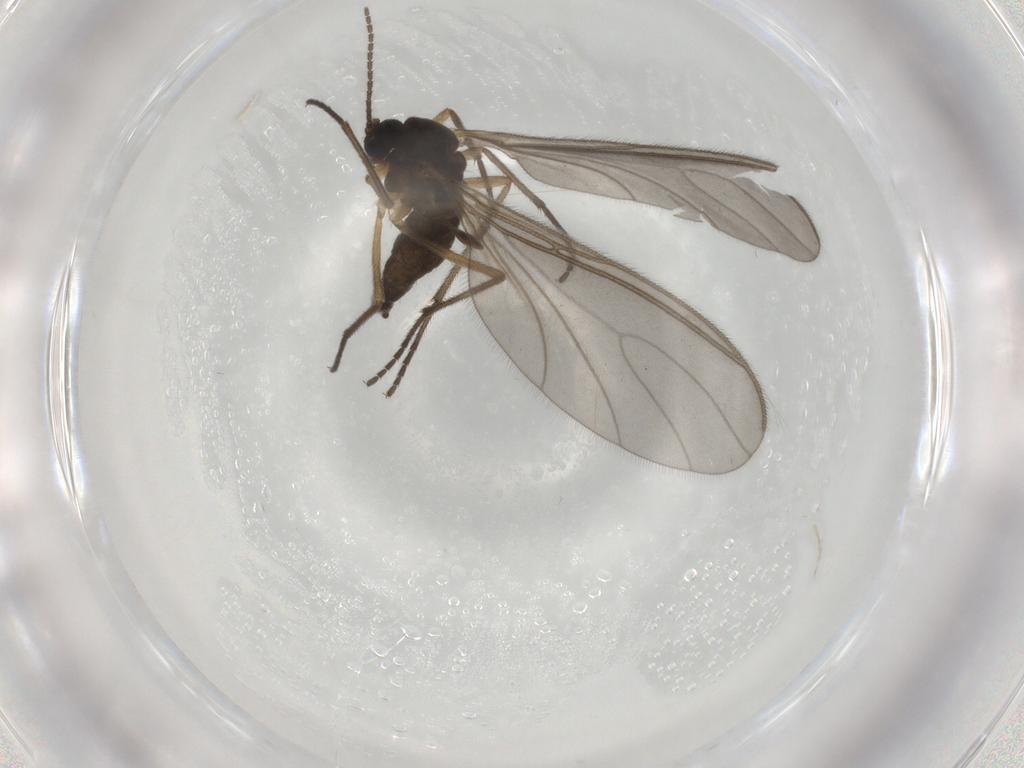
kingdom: Animalia
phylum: Arthropoda
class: Insecta
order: Diptera
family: Sciaridae
